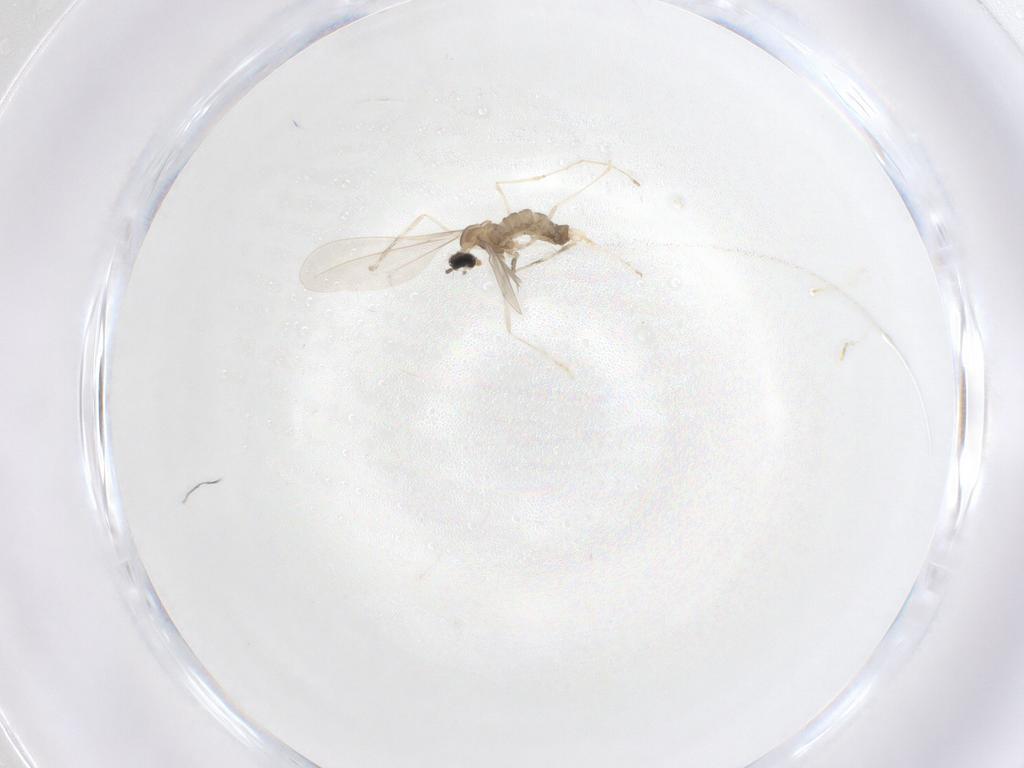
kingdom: Animalia
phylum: Arthropoda
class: Insecta
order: Diptera
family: Cecidomyiidae
